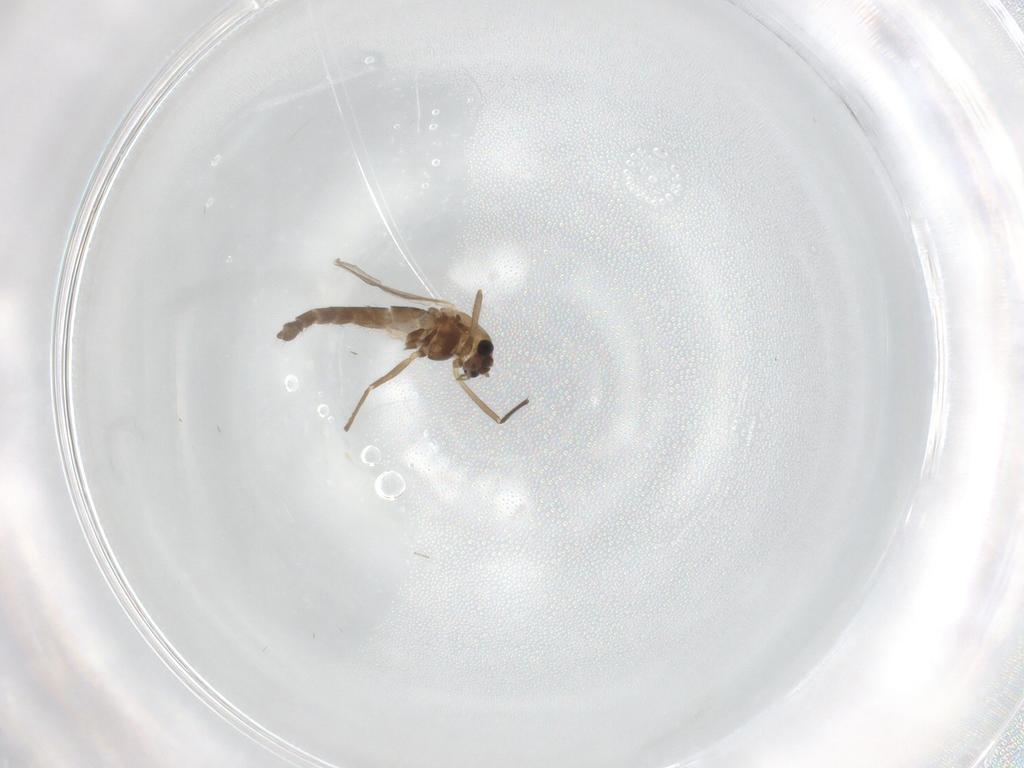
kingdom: Animalia
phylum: Arthropoda
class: Insecta
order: Diptera
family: Chironomidae
